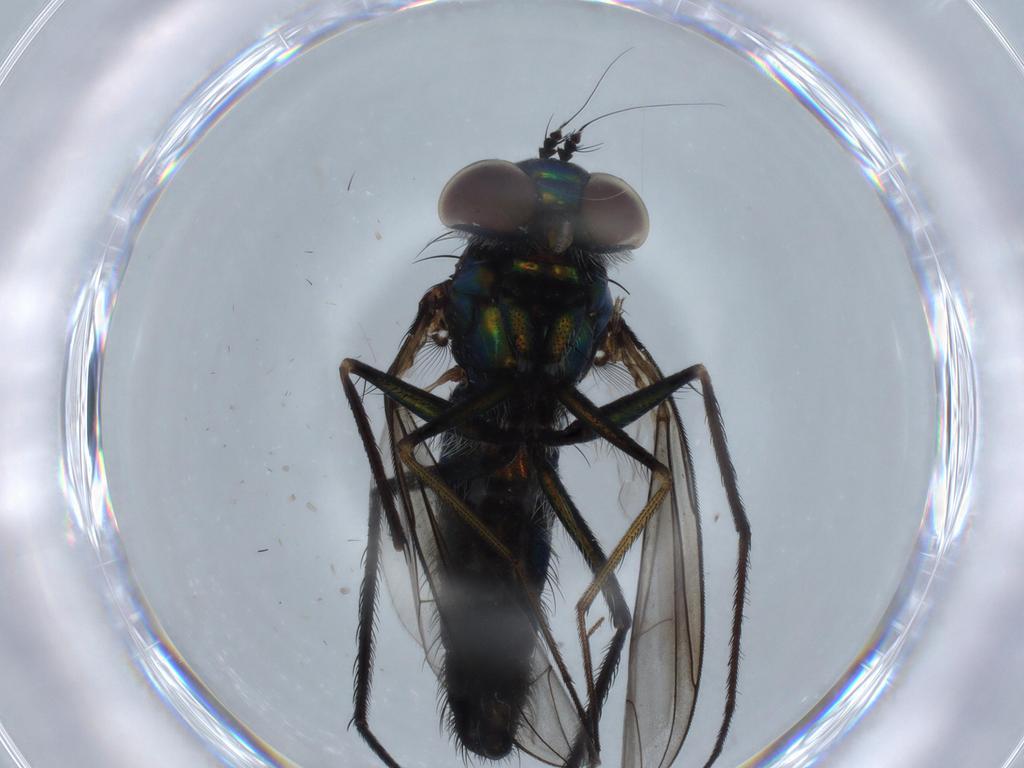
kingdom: Animalia
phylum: Arthropoda
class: Insecta
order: Diptera
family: Sciaridae
